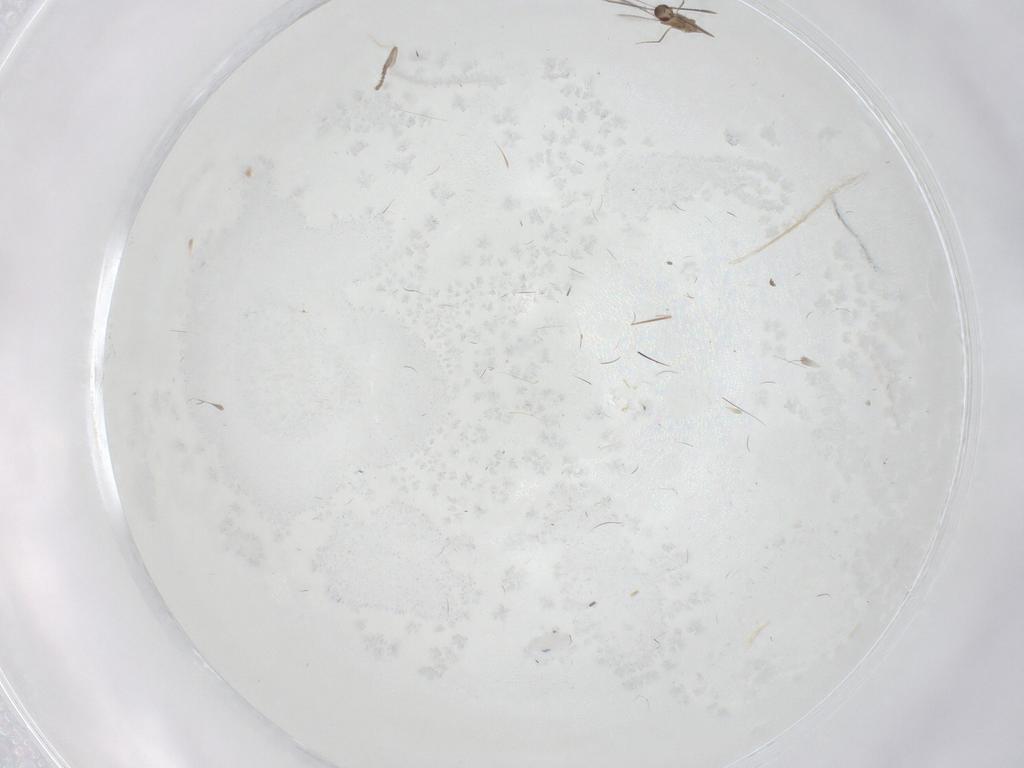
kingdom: Animalia
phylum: Arthropoda
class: Insecta
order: Diptera
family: Psychodidae
